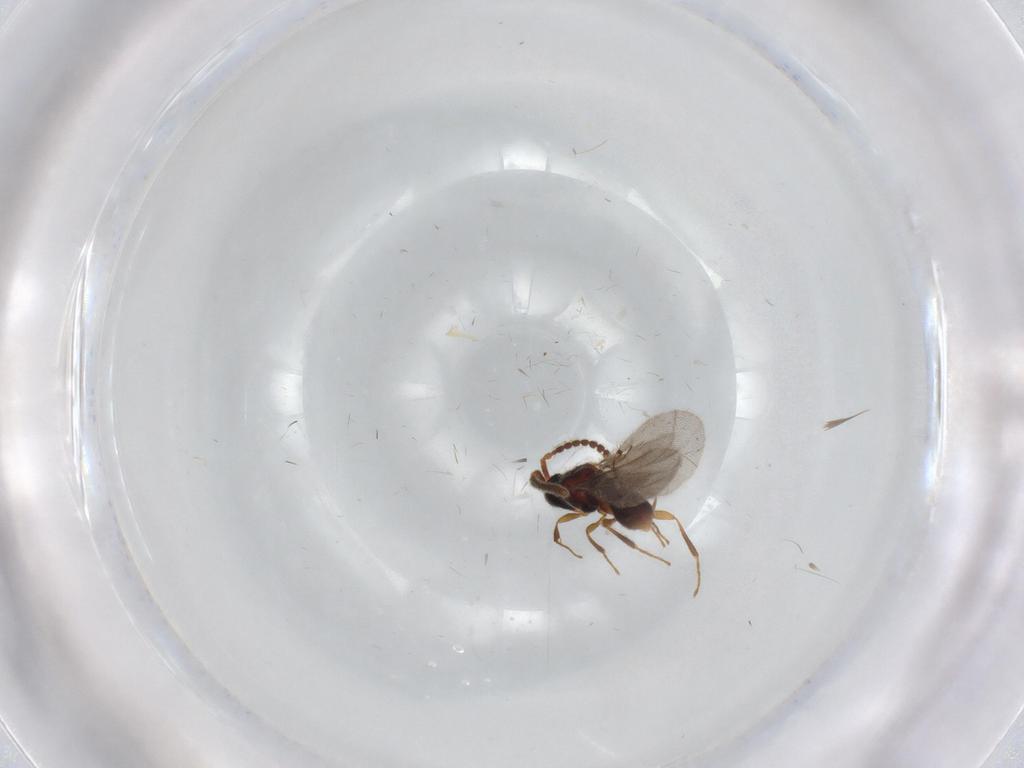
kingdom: Animalia
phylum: Arthropoda
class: Insecta
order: Hymenoptera
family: Diapriidae
